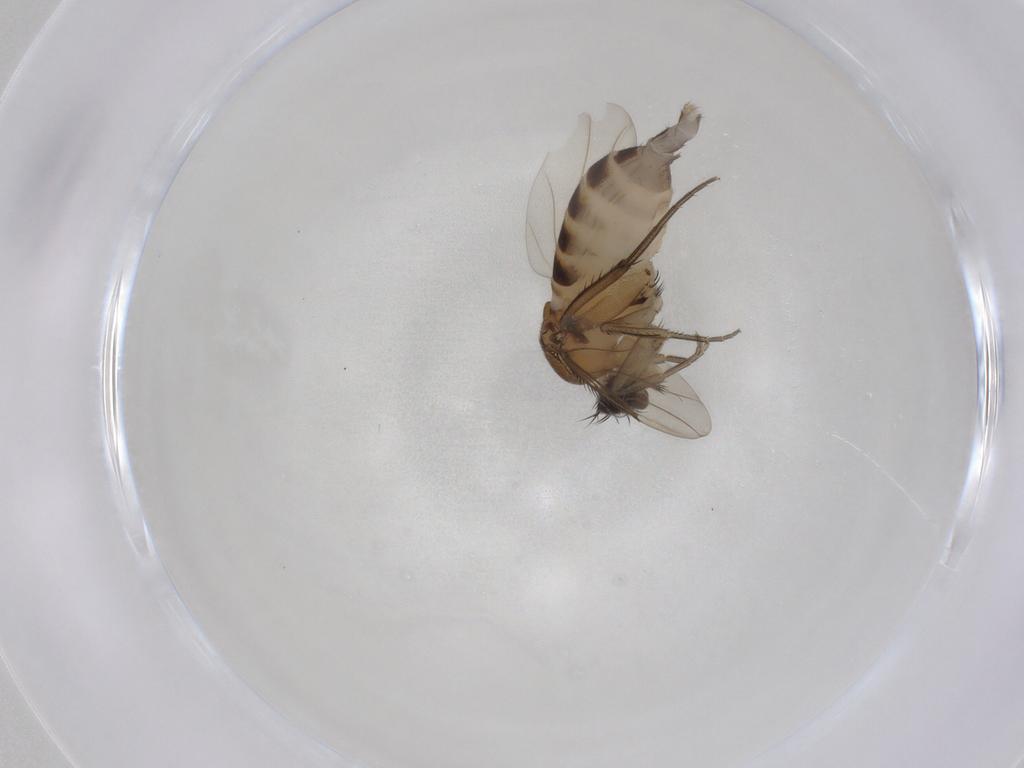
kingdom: Animalia
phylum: Arthropoda
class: Insecta
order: Diptera
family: Phoridae
